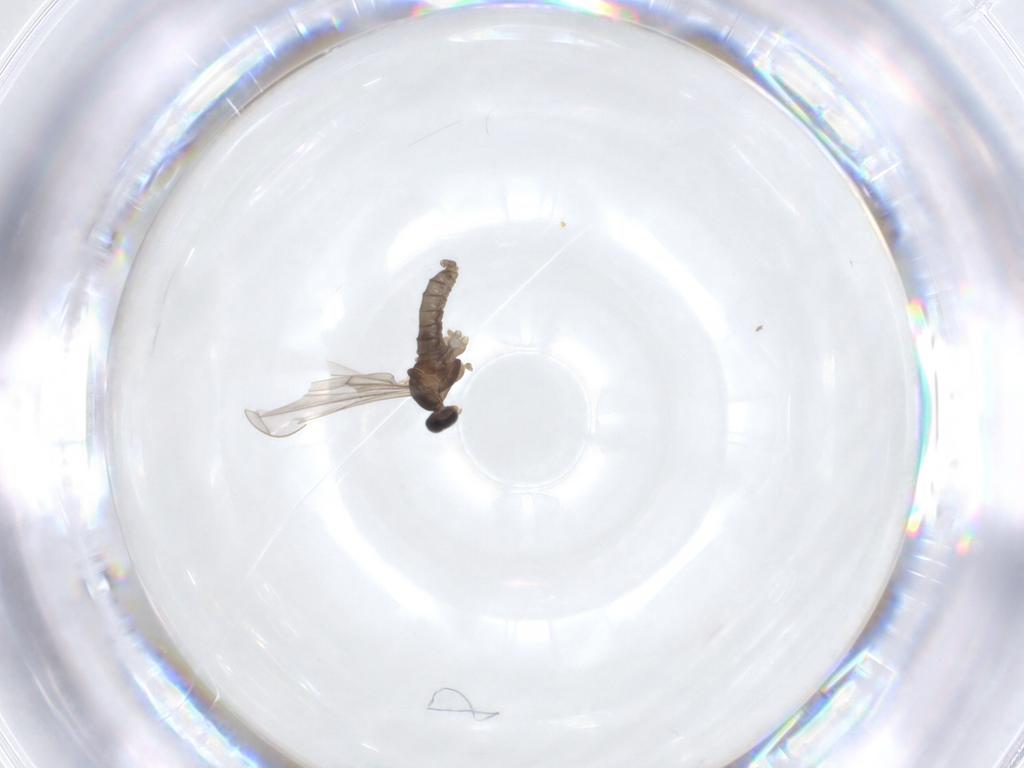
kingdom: Animalia
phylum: Arthropoda
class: Insecta
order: Diptera
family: Cecidomyiidae
